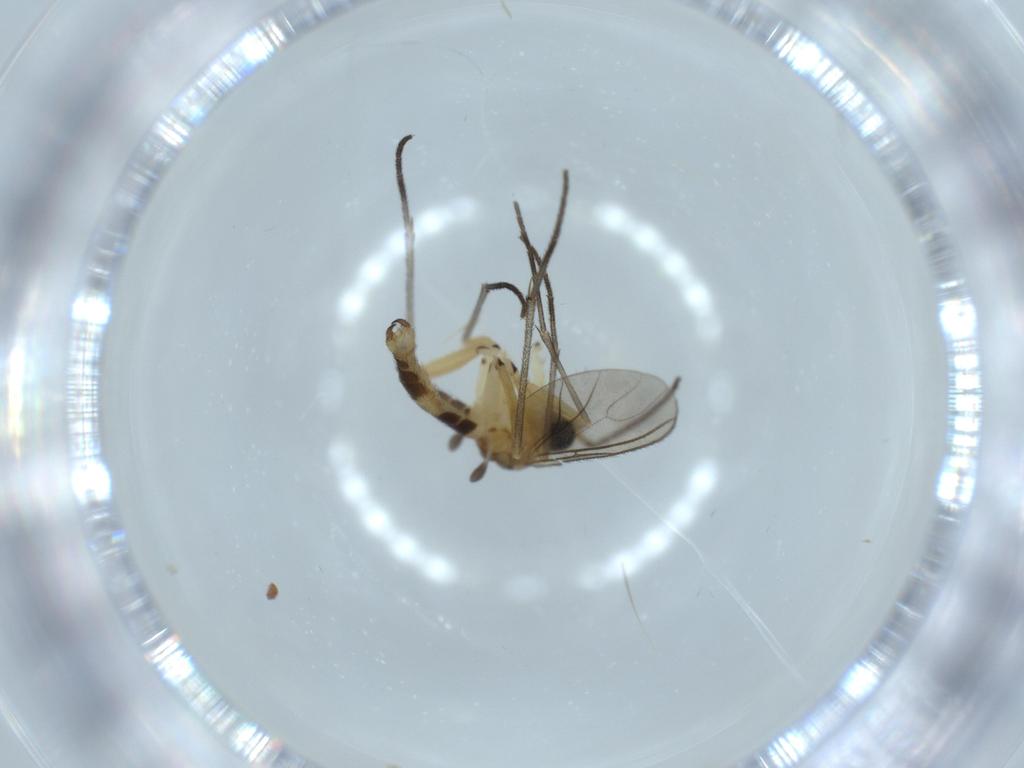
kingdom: Animalia
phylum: Arthropoda
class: Insecta
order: Diptera
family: Sciaridae
